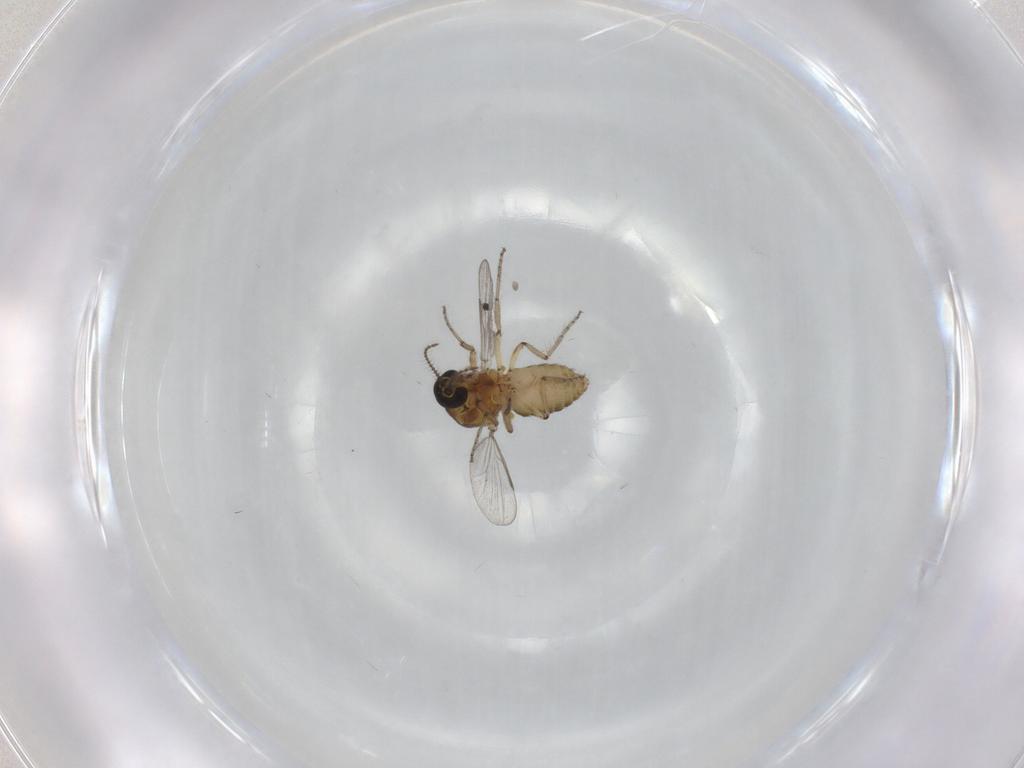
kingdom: Animalia
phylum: Arthropoda
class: Insecta
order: Diptera
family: Ceratopogonidae
